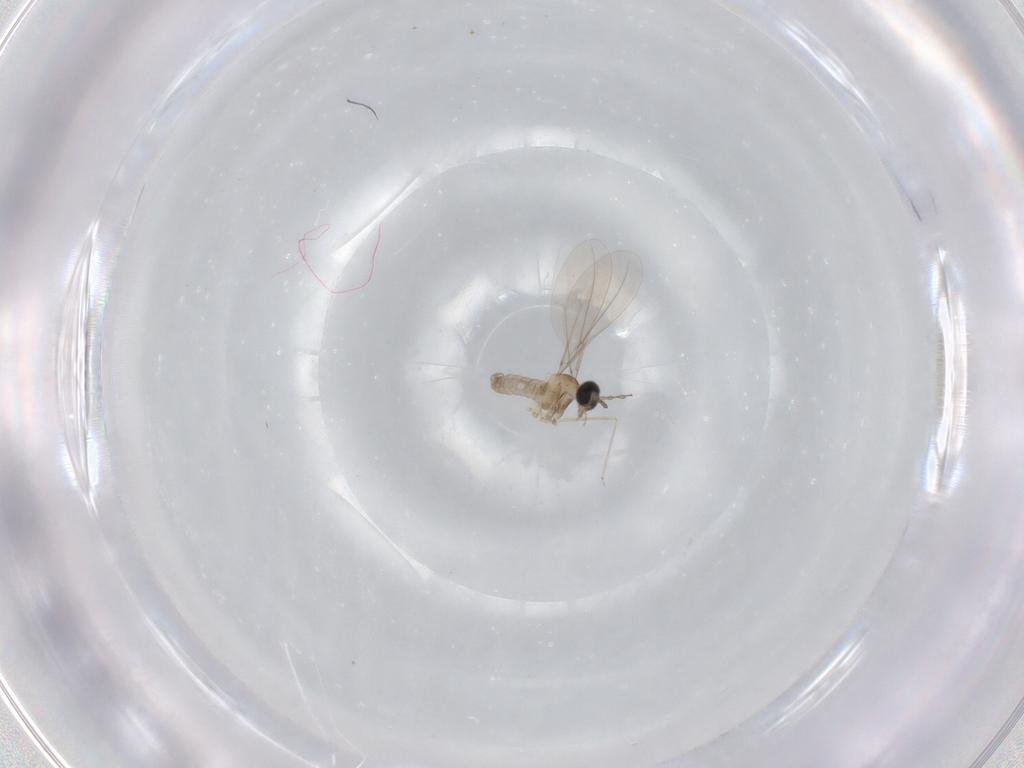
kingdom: Animalia
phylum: Arthropoda
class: Insecta
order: Diptera
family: Cecidomyiidae
